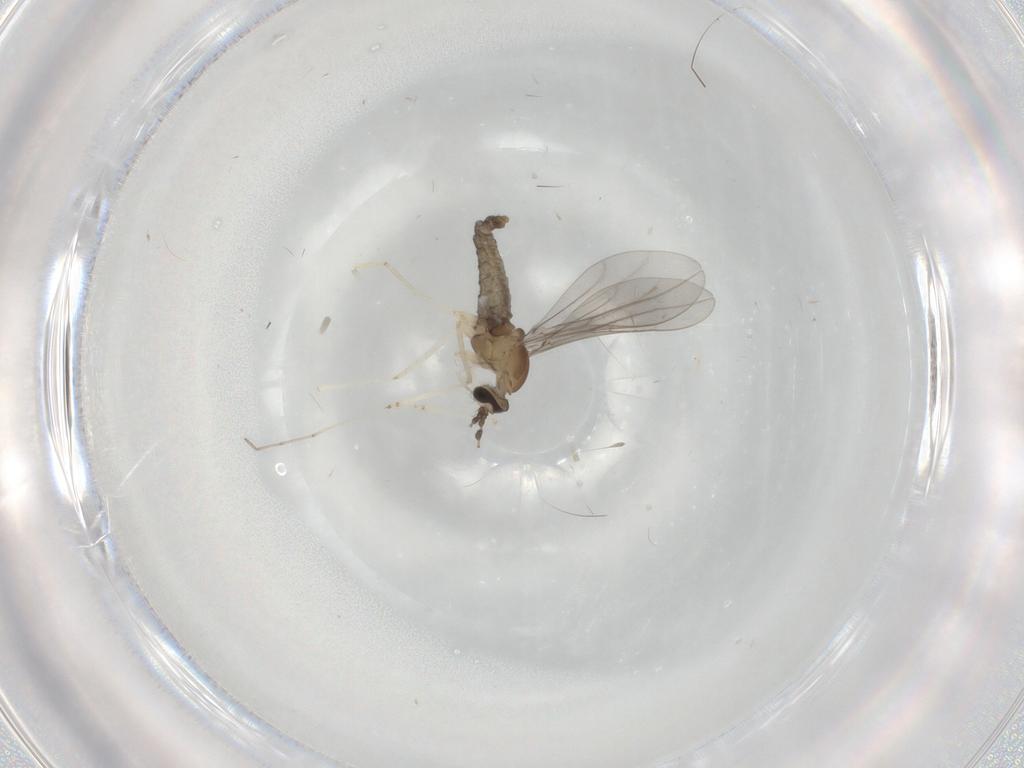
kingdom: Animalia
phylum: Arthropoda
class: Insecta
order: Diptera
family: Cecidomyiidae
